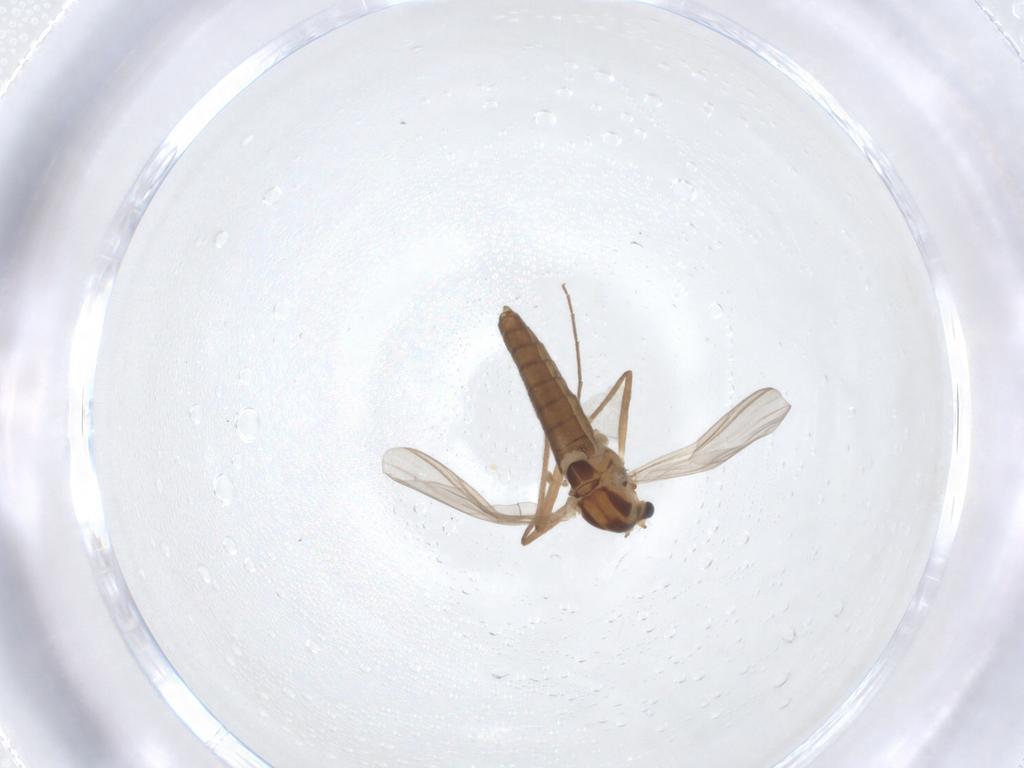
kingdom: Animalia
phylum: Arthropoda
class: Insecta
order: Diptera
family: Chironomidae
